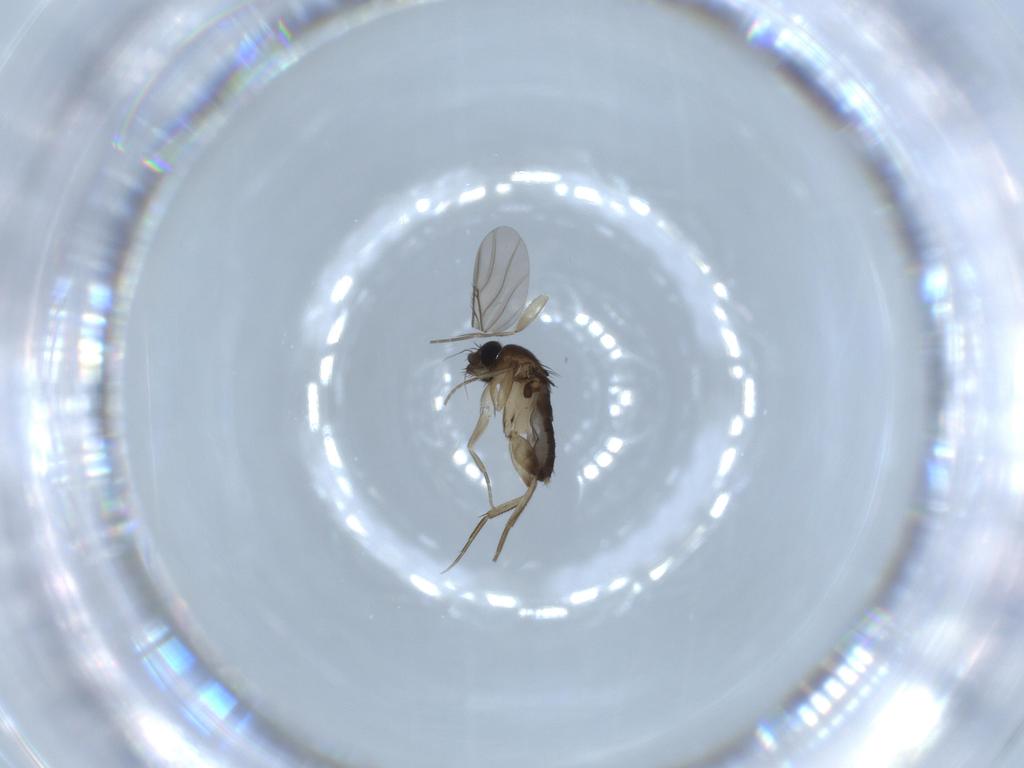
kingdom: Animalia
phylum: Arthropoda
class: Insecta
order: Diptera
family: Phoridae
